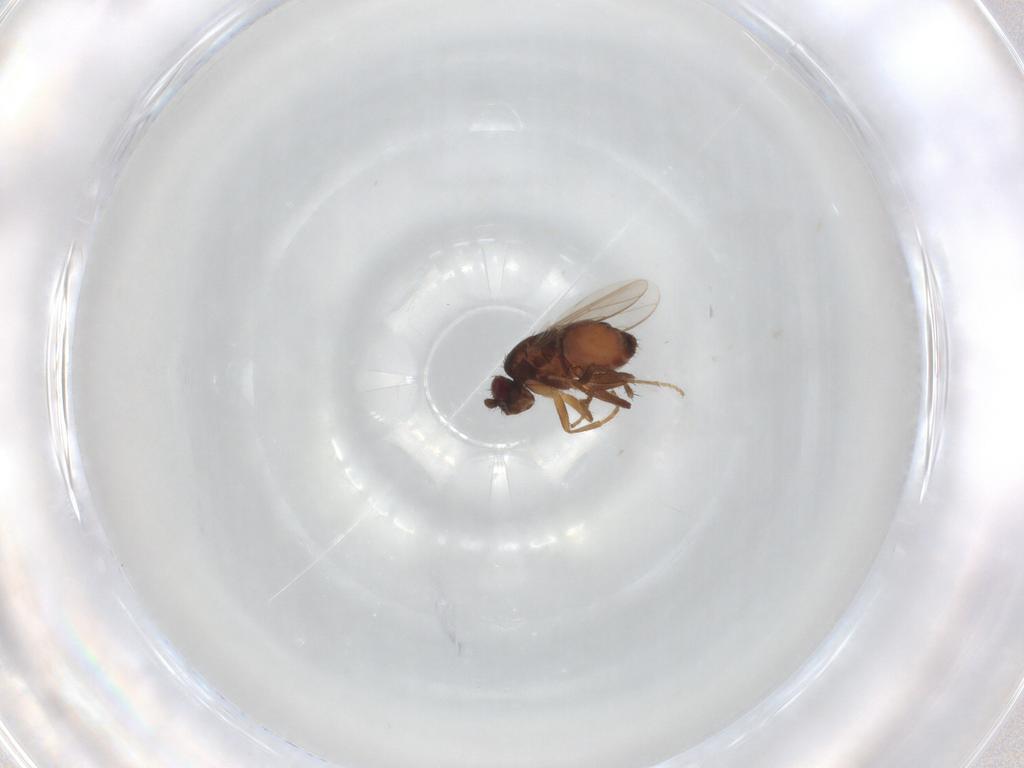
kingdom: Animalia
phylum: Arthropoda
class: Insecta
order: Diptera
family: Sphaeroceridae
